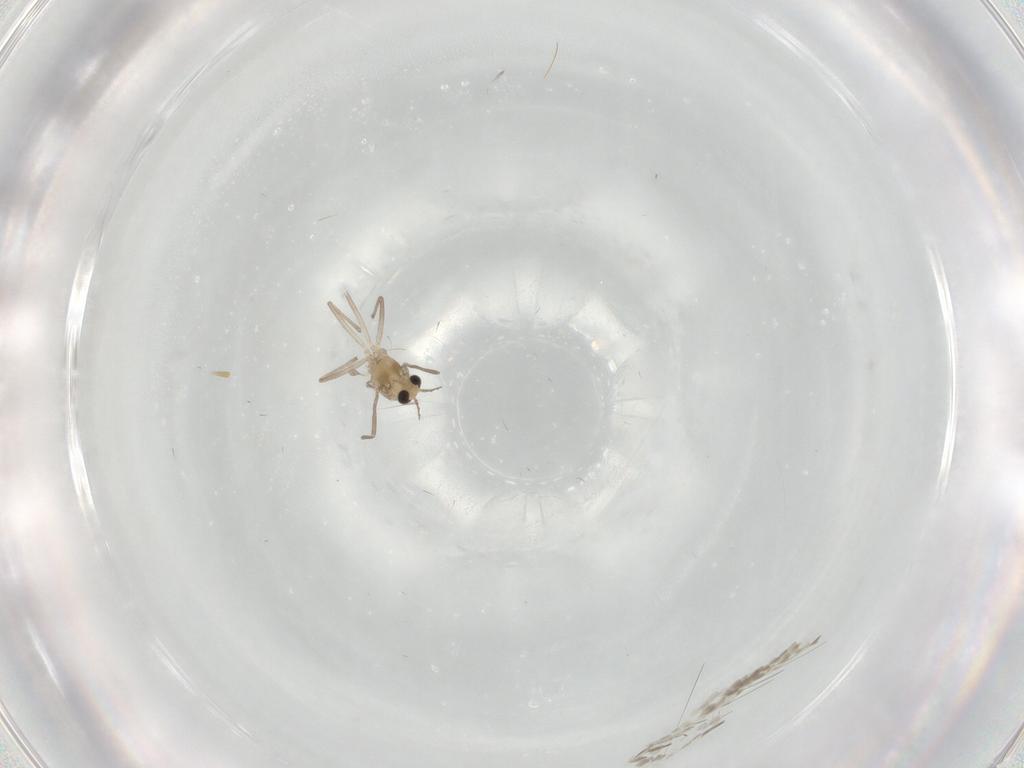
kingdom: Animalia
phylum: Arthropoda
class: Insecta
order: Diptera
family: Chironomidae
